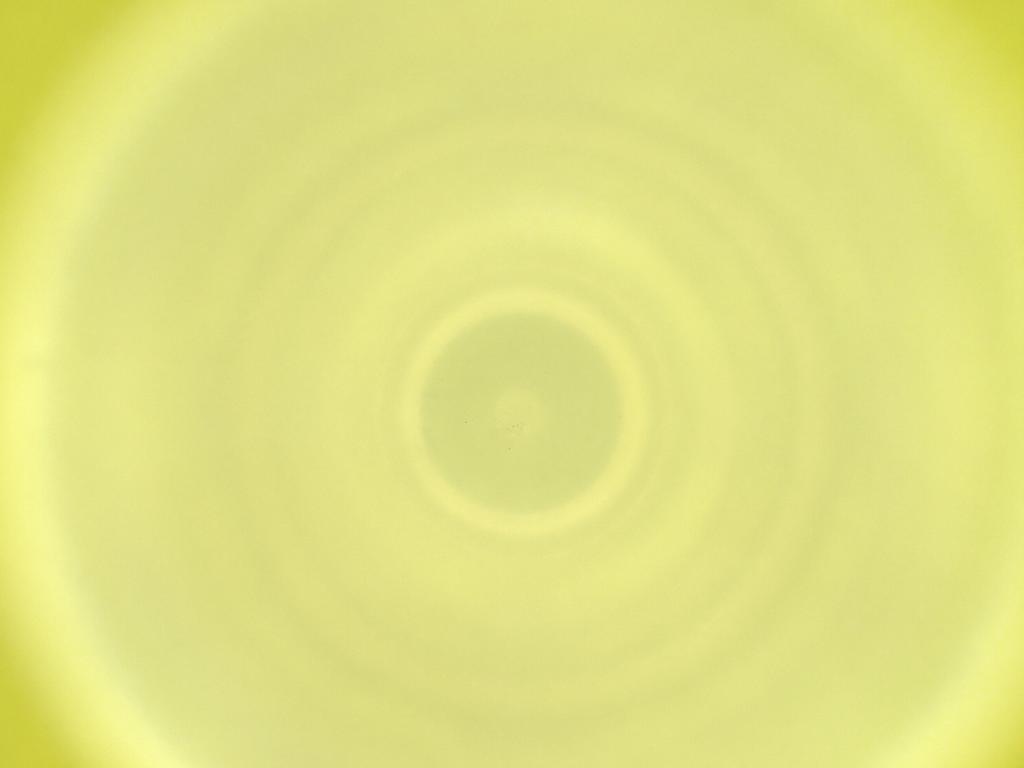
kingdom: Animalia
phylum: Arthropoda
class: Insecta
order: Diptera
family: Cecidomyiidae
